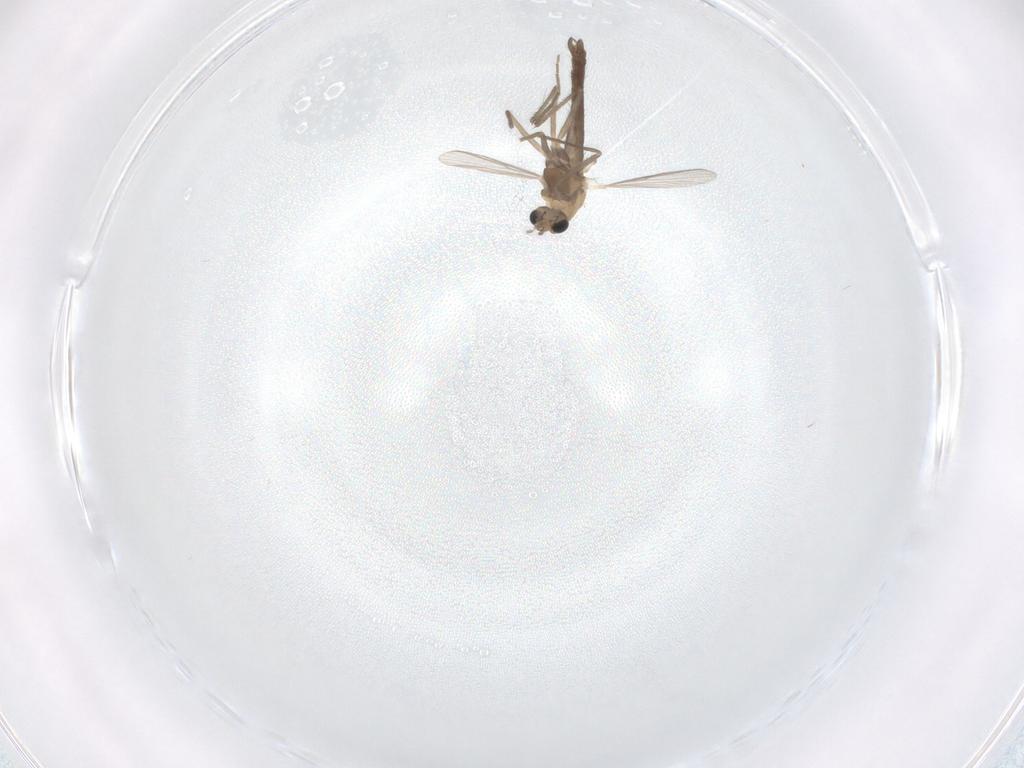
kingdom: Animalia
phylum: Arthropoda
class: Insecta
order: Diptera
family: Chironomidae
